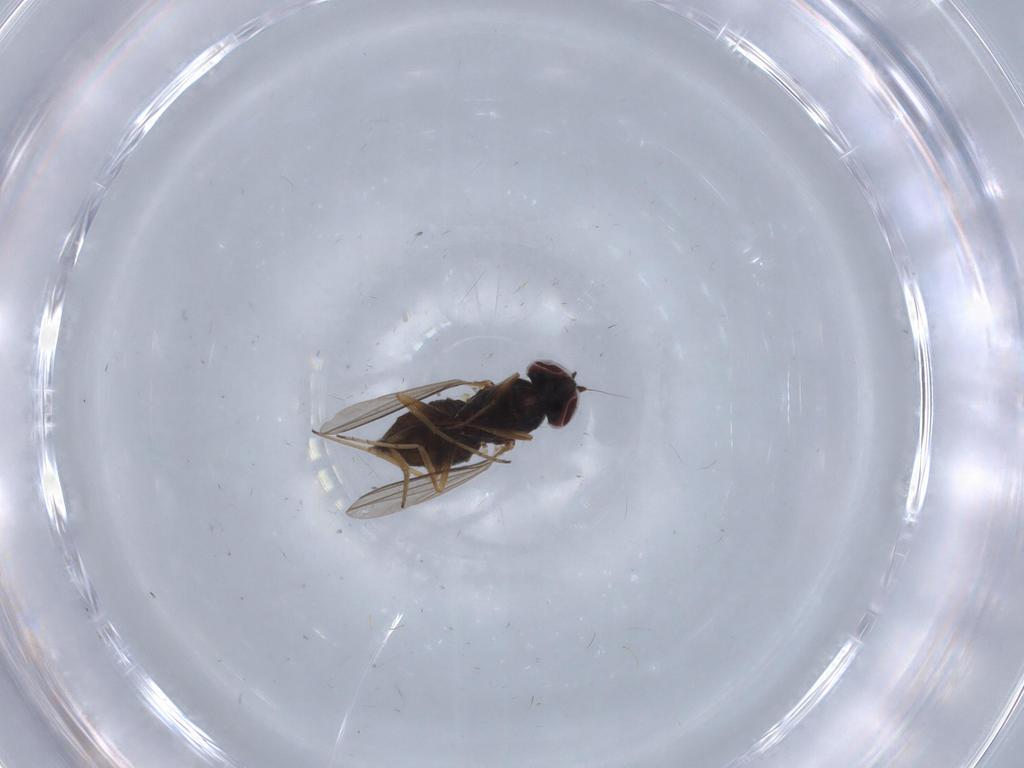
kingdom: Animalia
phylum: Arthropoda
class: Insecta
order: Diptera
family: Dolichopodidae
